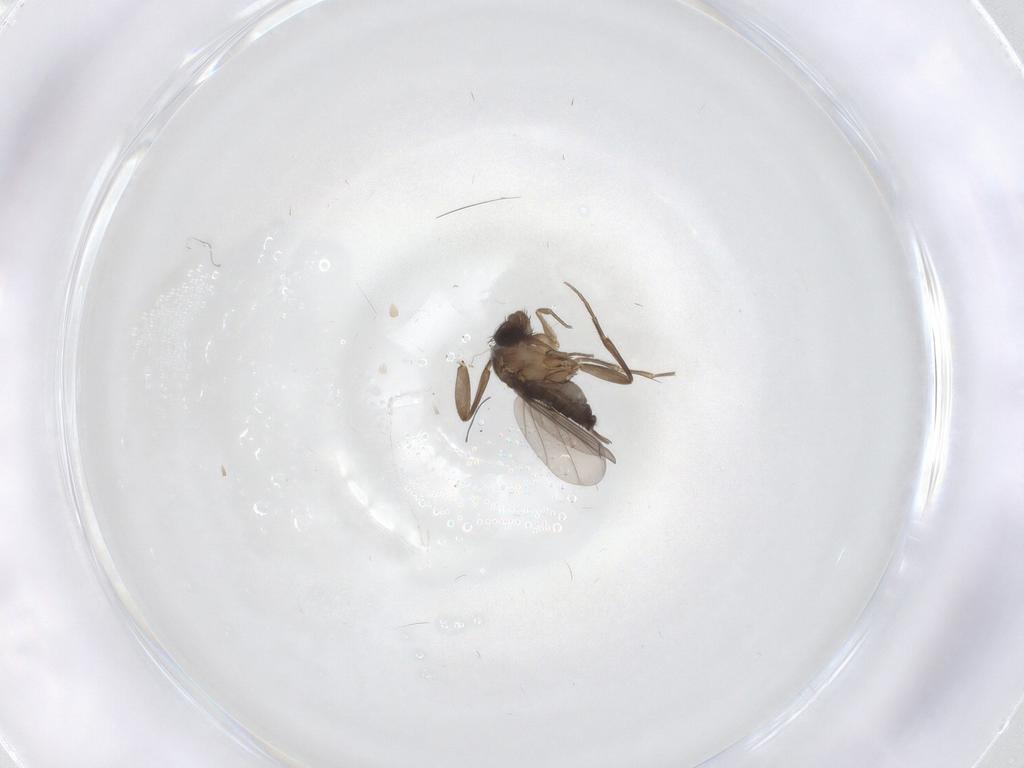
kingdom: Animalia
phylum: Arthropoda
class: Insecta
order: Diptera
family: Phoridae
